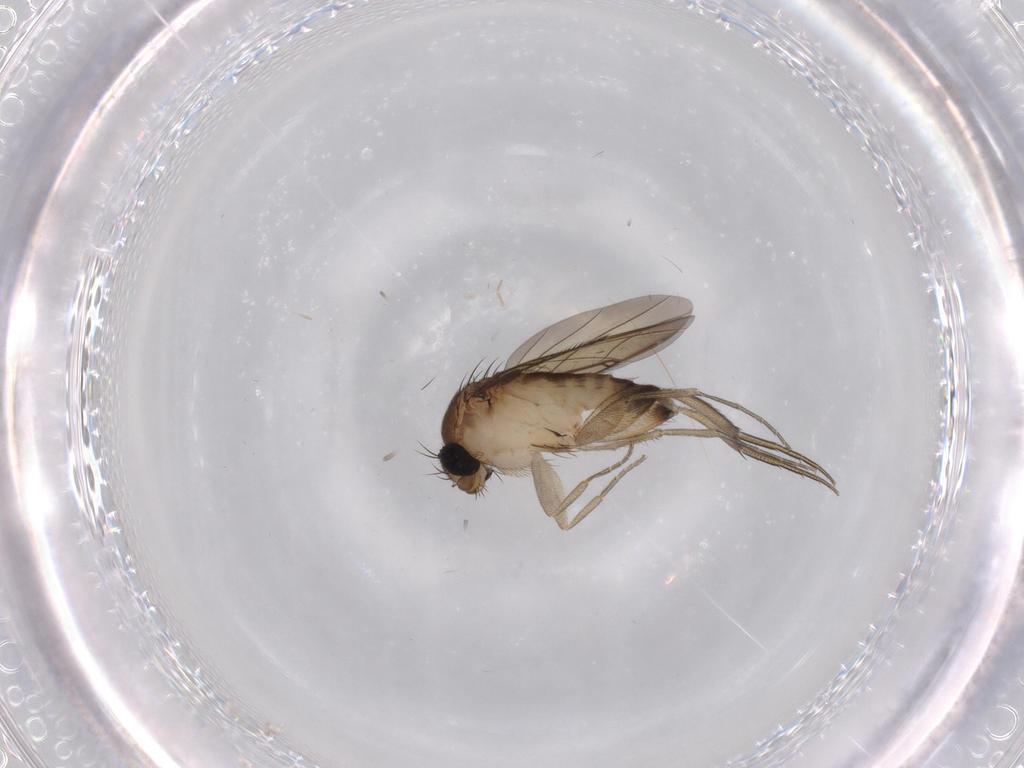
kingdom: Animalia
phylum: Arthropoda
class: Insecta
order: Diptera
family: Phoridae
